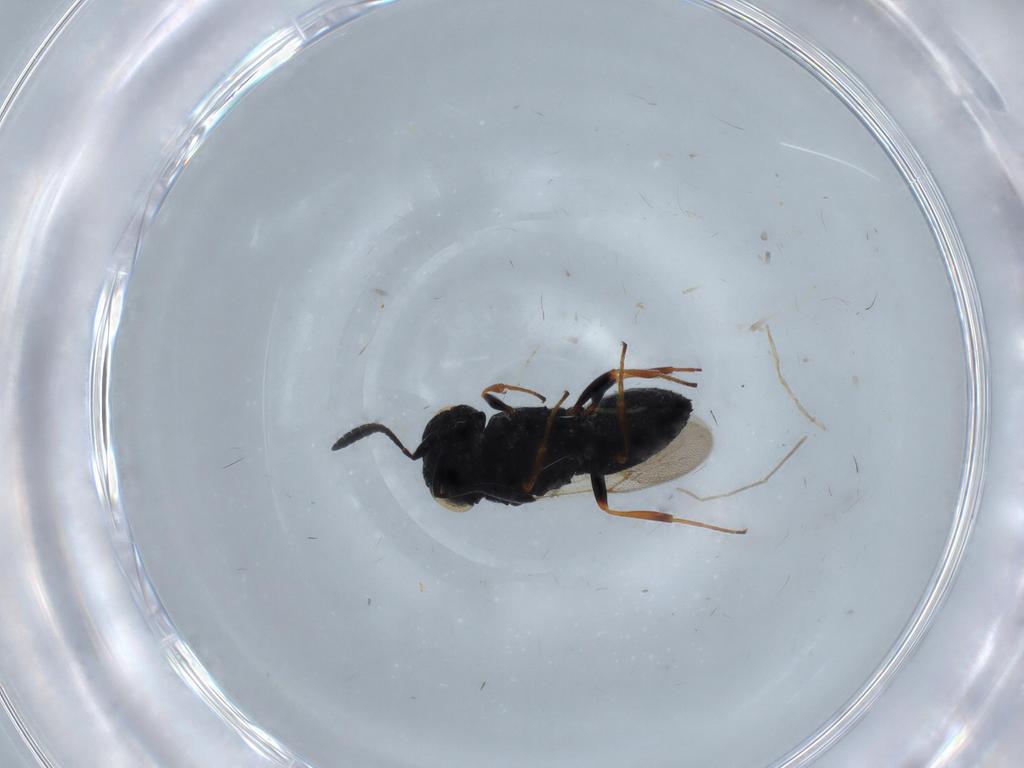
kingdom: Animalia
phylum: Arthropoda
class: Insecta
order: Hymenoptera
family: Scelionidae
